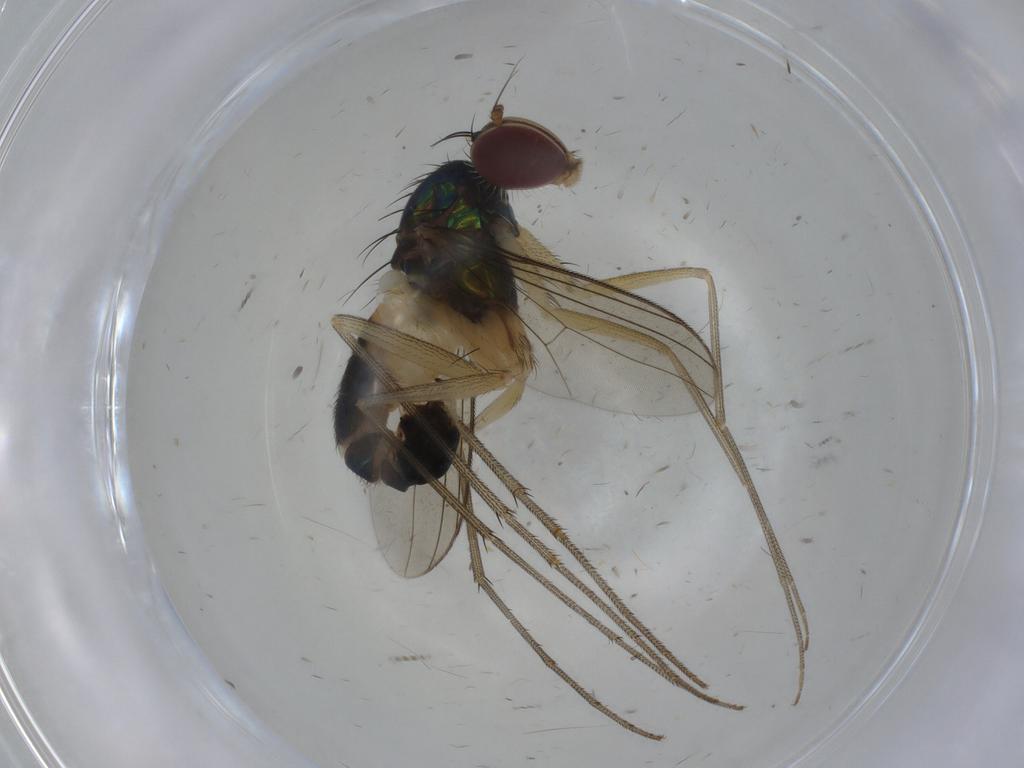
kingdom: Animalia
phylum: Arthropoda
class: Insecta
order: Diptera
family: Dolichopodidae
